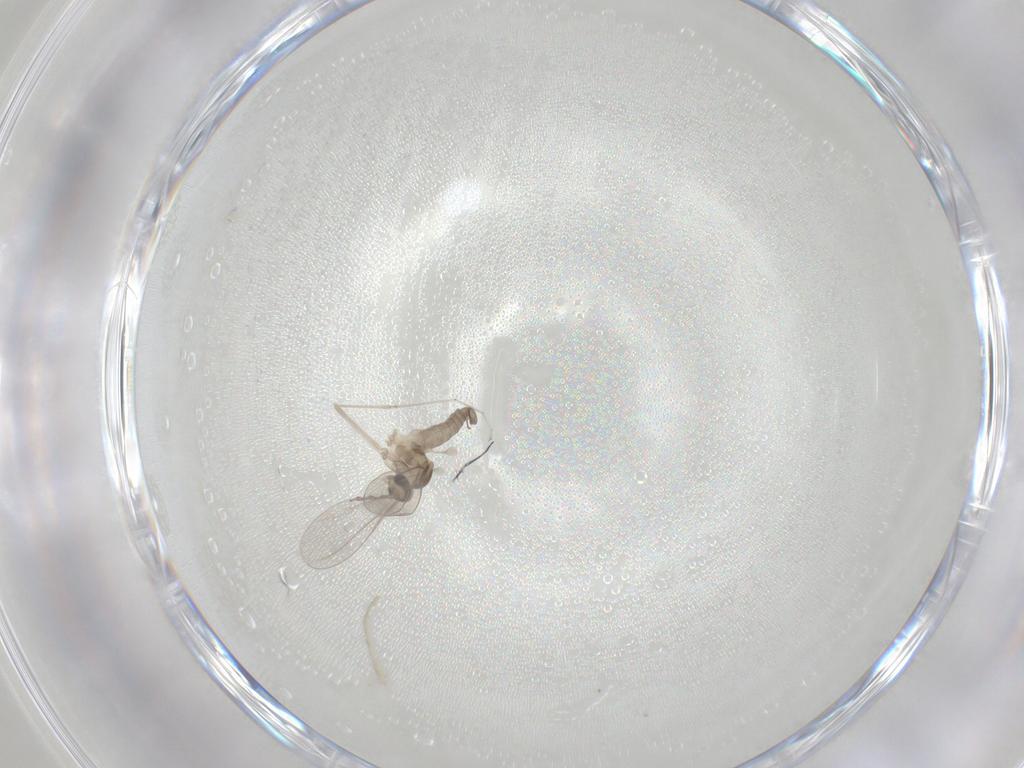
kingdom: Animalia
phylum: Arthropoda
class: Insecta
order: Diptera
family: Cecidomyiidae
